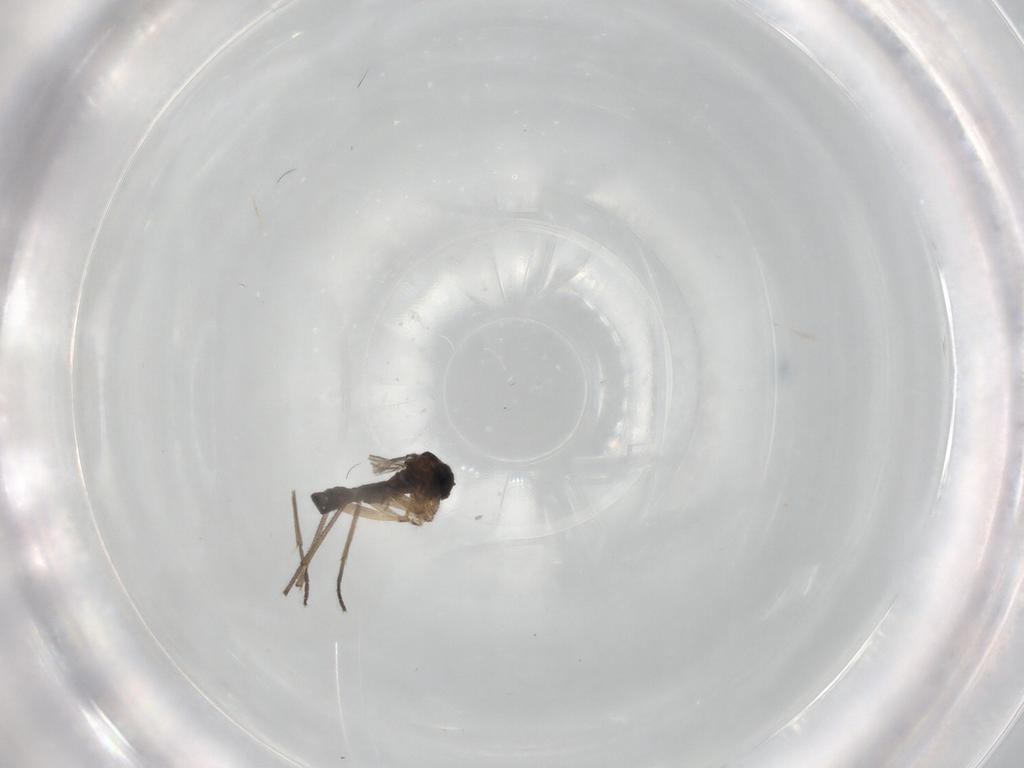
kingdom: Animalia
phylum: Arthropoda
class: Insecta
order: Diptera
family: Sciaridae
